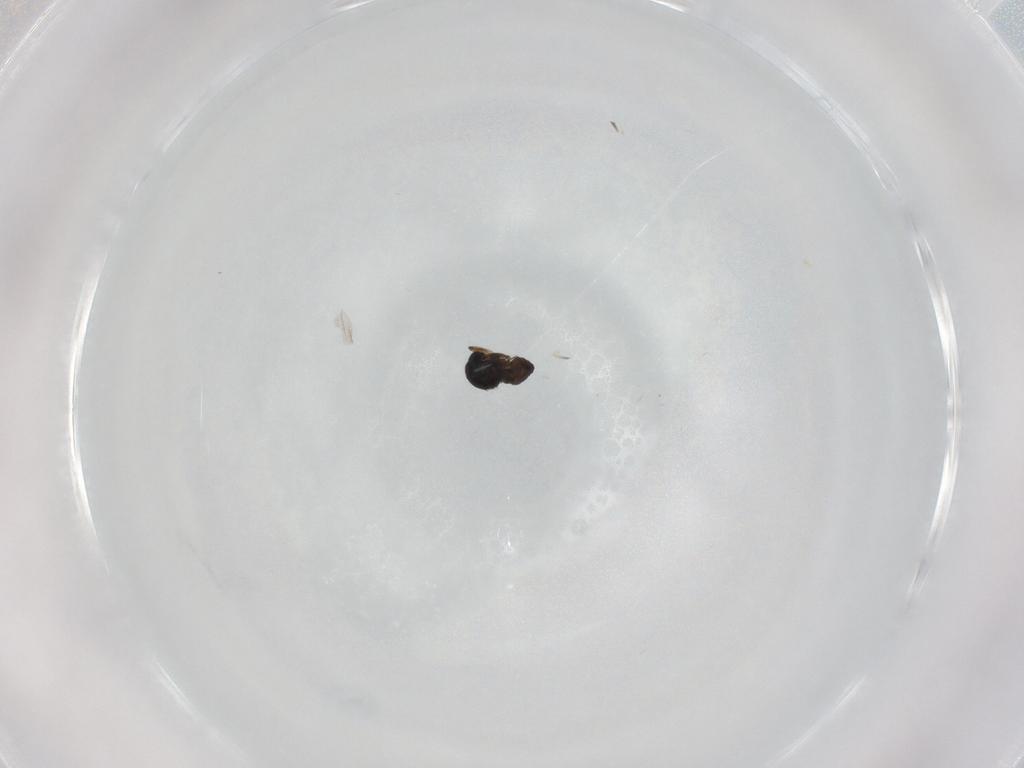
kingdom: Animalia
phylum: Arthropoda
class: Insecta
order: Diptera
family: Ceratopogonidae
